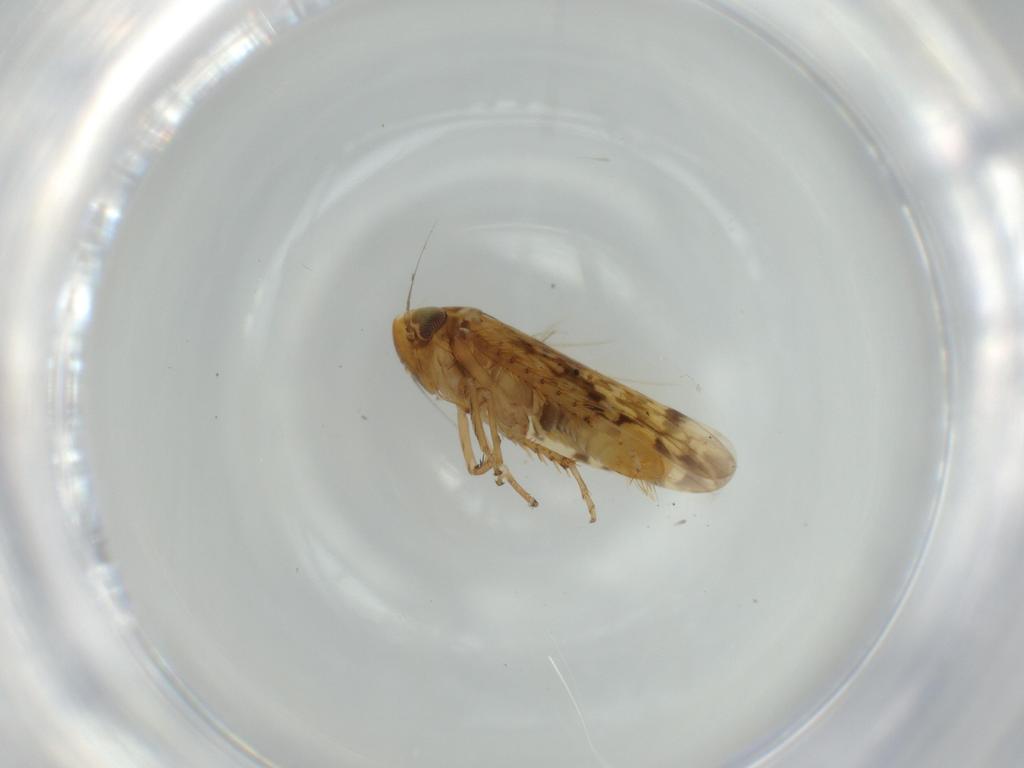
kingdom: Animalia
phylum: Arthropoda
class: Insecta
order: Hemiptera
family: Cicadellidae
